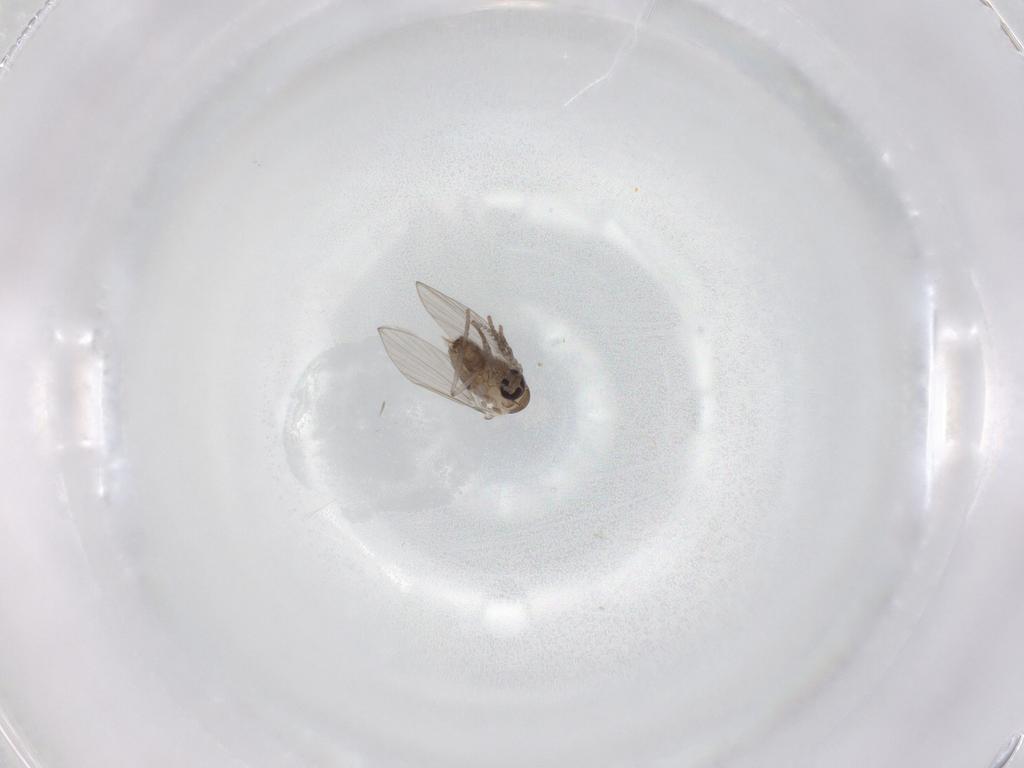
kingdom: Animalia
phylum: Arthropoda
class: Insecta
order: Diptera
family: Psychodidae
